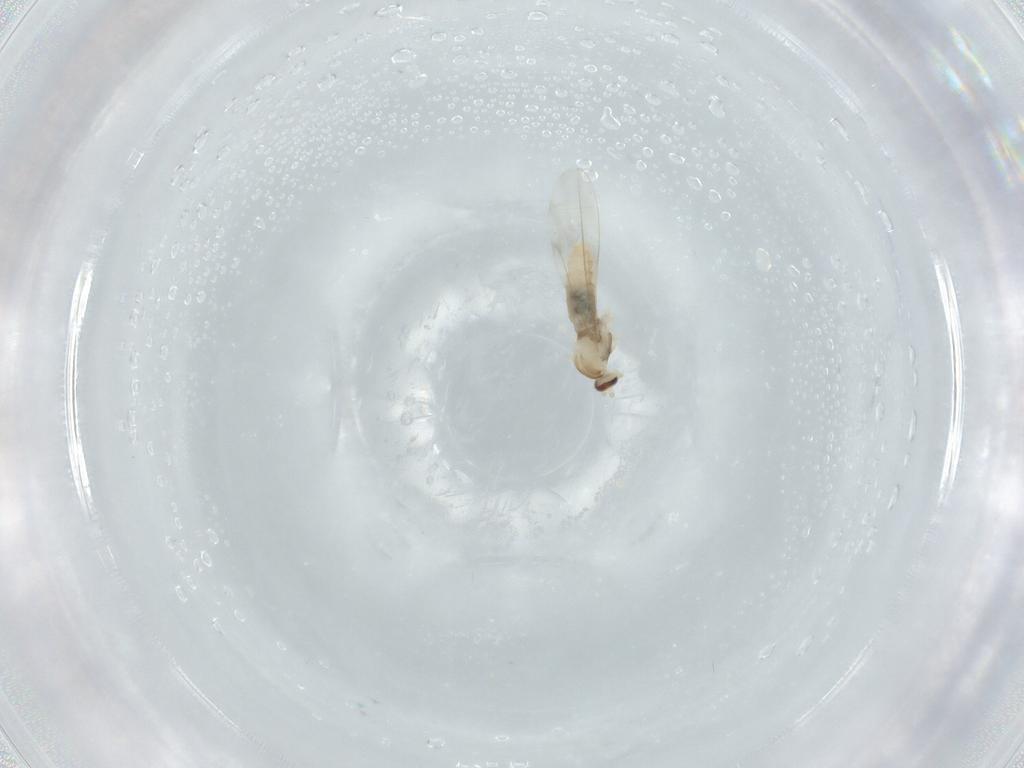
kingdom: Animalia
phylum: Arthropoda
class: Insecta
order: Diptera
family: Cecidomyiidae
